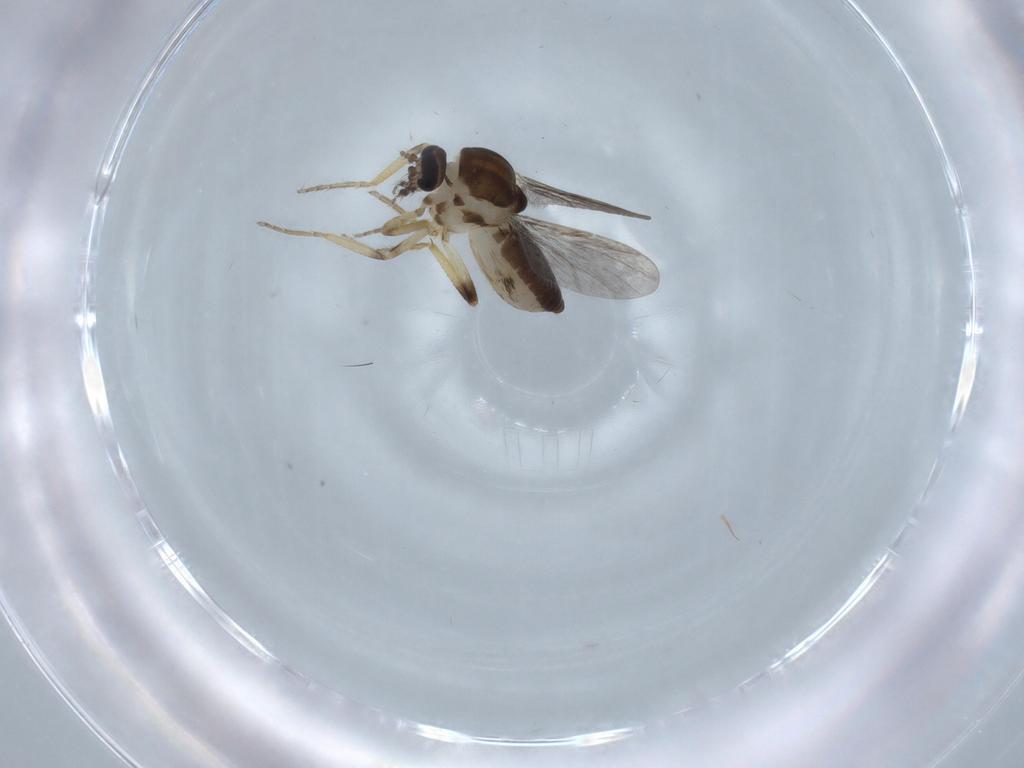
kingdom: Animalia
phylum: Arthropoda
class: Insecta
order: Diptera
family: Ceratopogonidae
